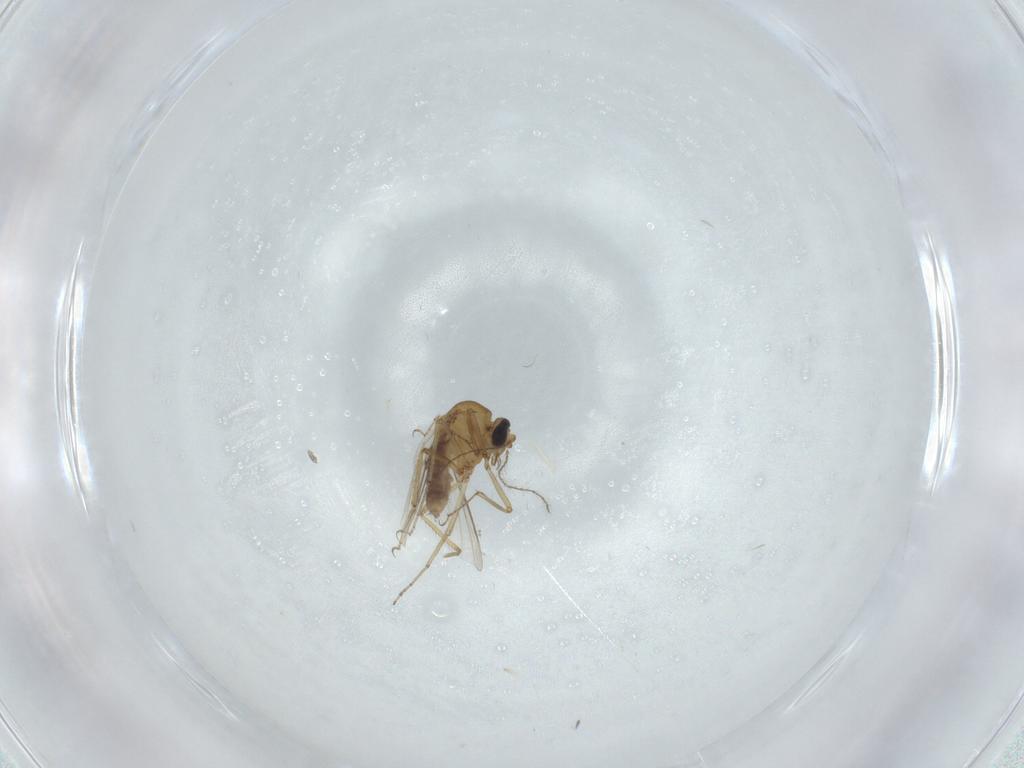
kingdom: Animalia
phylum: Arthropoda
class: Insecta
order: Diptera
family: Ceratopogonidae
